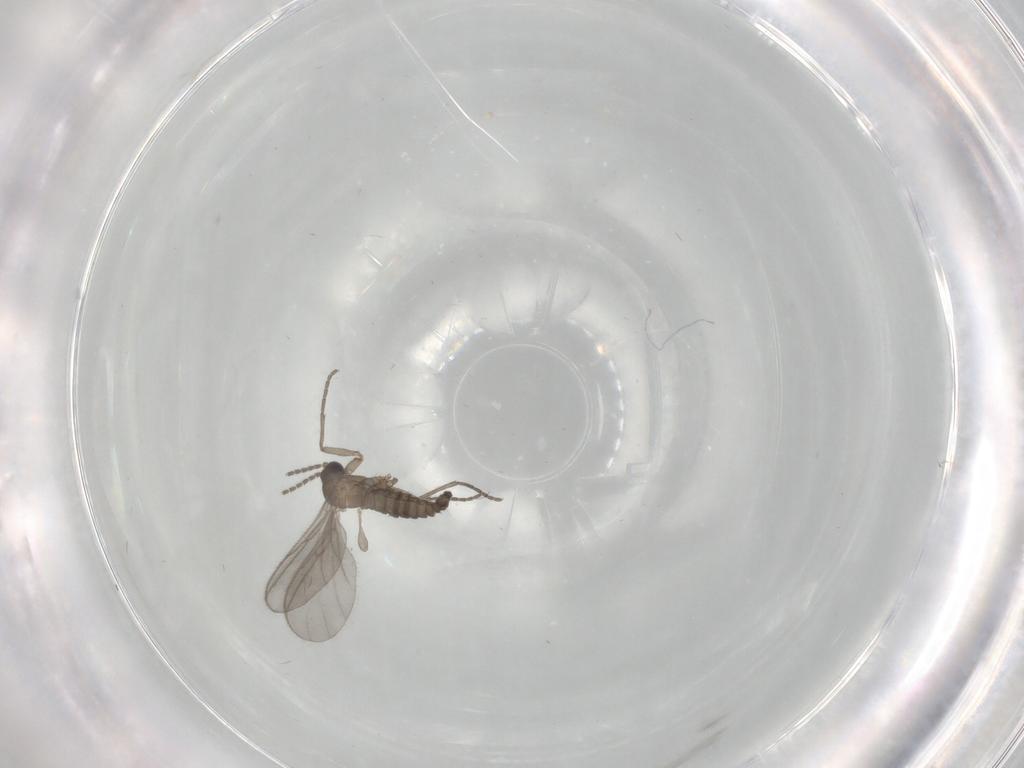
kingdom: Animalia
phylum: Arthropoda
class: Insecta
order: Diptera
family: Sciaridae
